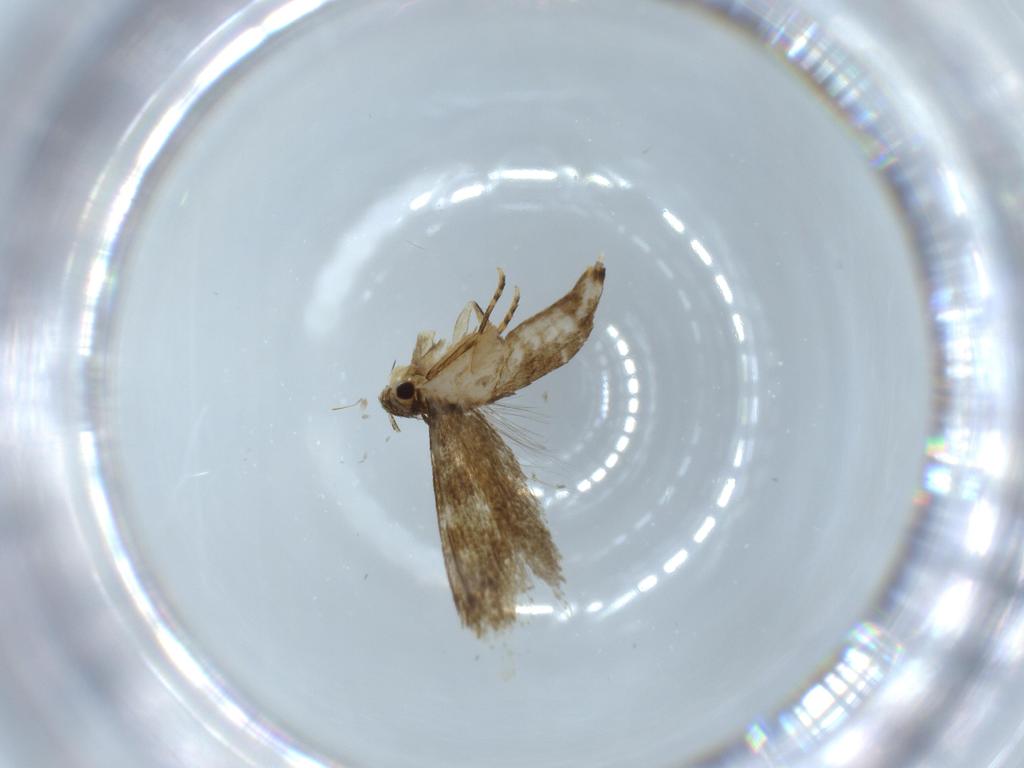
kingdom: Animalia
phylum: Arthropoda
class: Insecta
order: Lepidoptera
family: Tineidae
